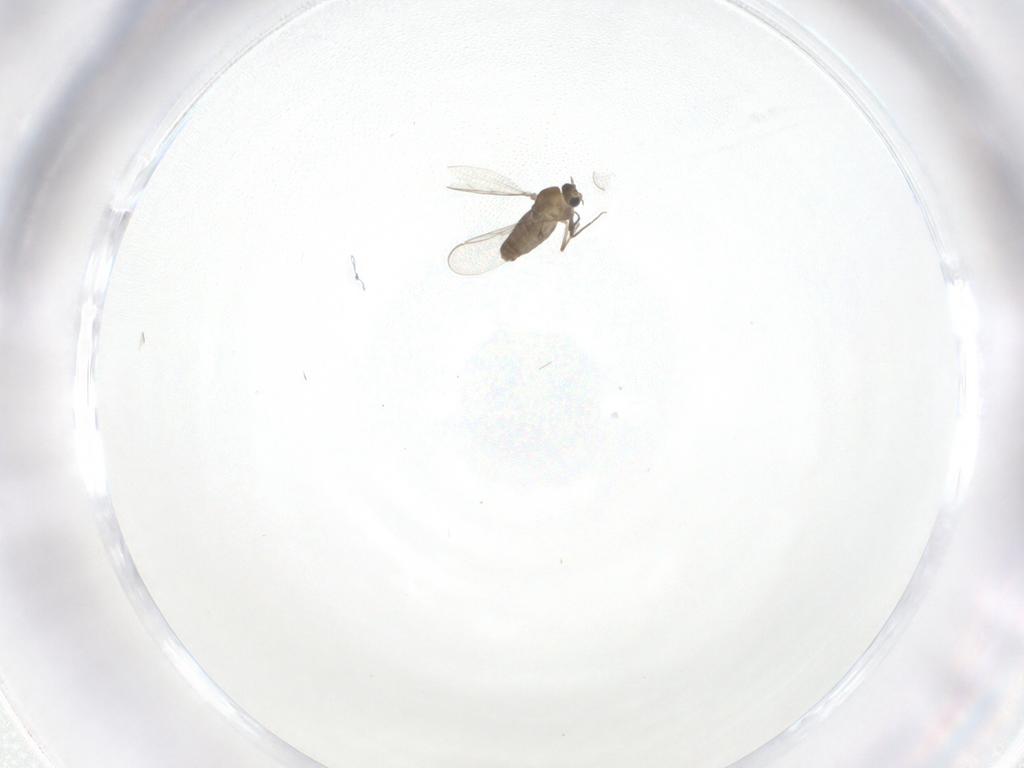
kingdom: Animalia
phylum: Arthropoda
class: Insecta
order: Diptera
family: Chironomidae
